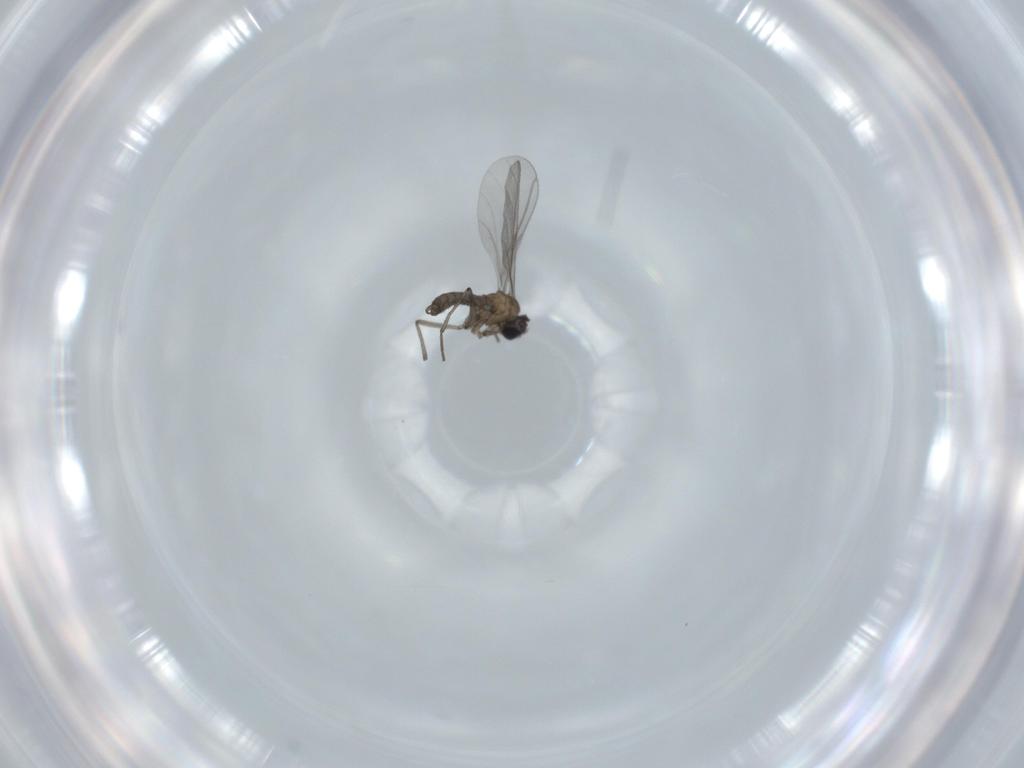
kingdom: Animalia
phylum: Arthropoda
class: Insecta
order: Diptera
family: Sciaridae
